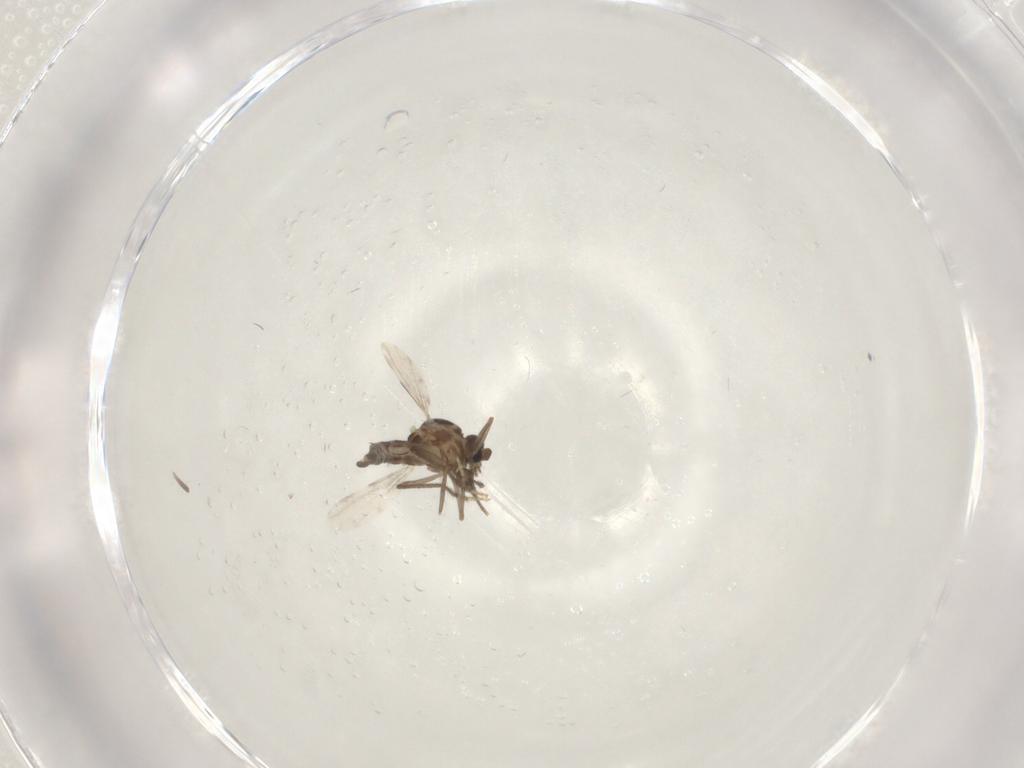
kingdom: Animalia
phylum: Arthropoda
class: Insecta
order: Diptera
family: Ceratopogonidae
